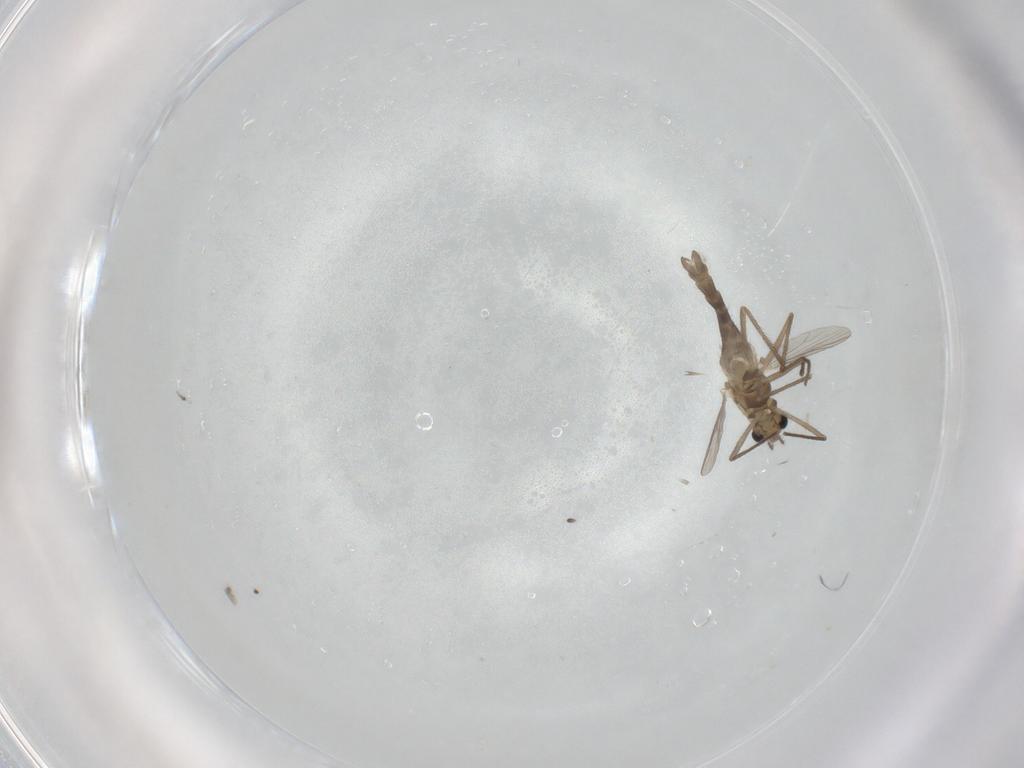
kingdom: Animalia
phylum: Arthropoda
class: Insecta
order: Diptera
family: Chironomidae
